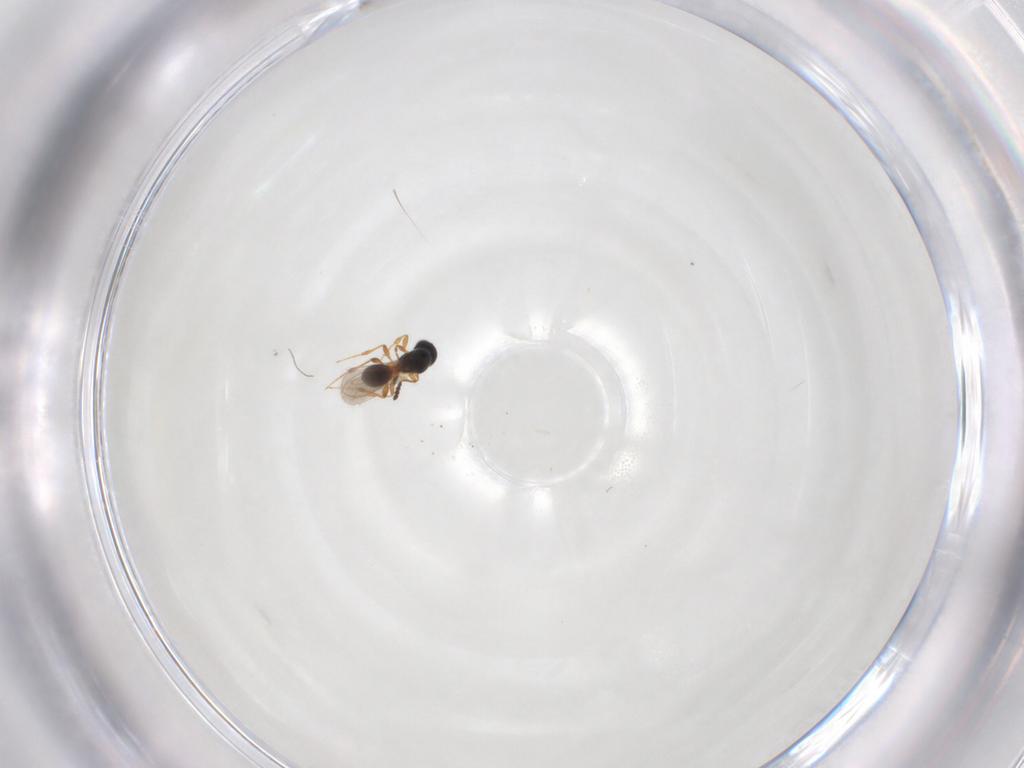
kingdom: Animalia
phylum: Arthropoda
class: Insecta
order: Hymenoptera
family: Platygastridae
